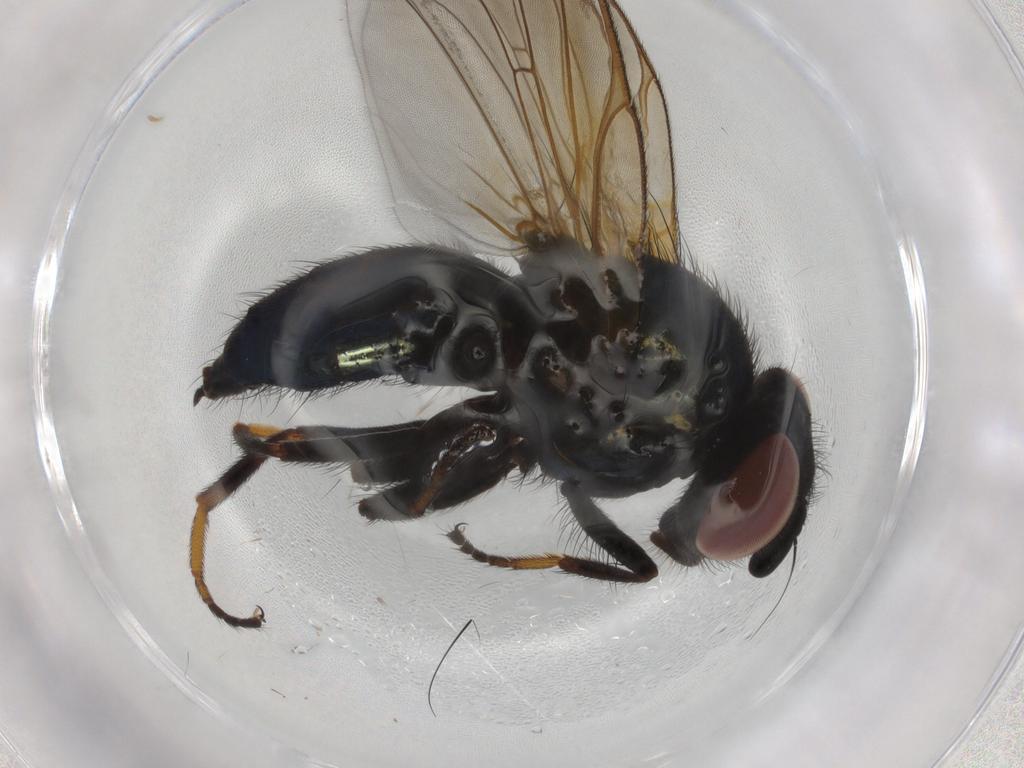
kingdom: Animalia
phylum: Arthropoda
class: Insecta
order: Diptera
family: Lonchaeidae
